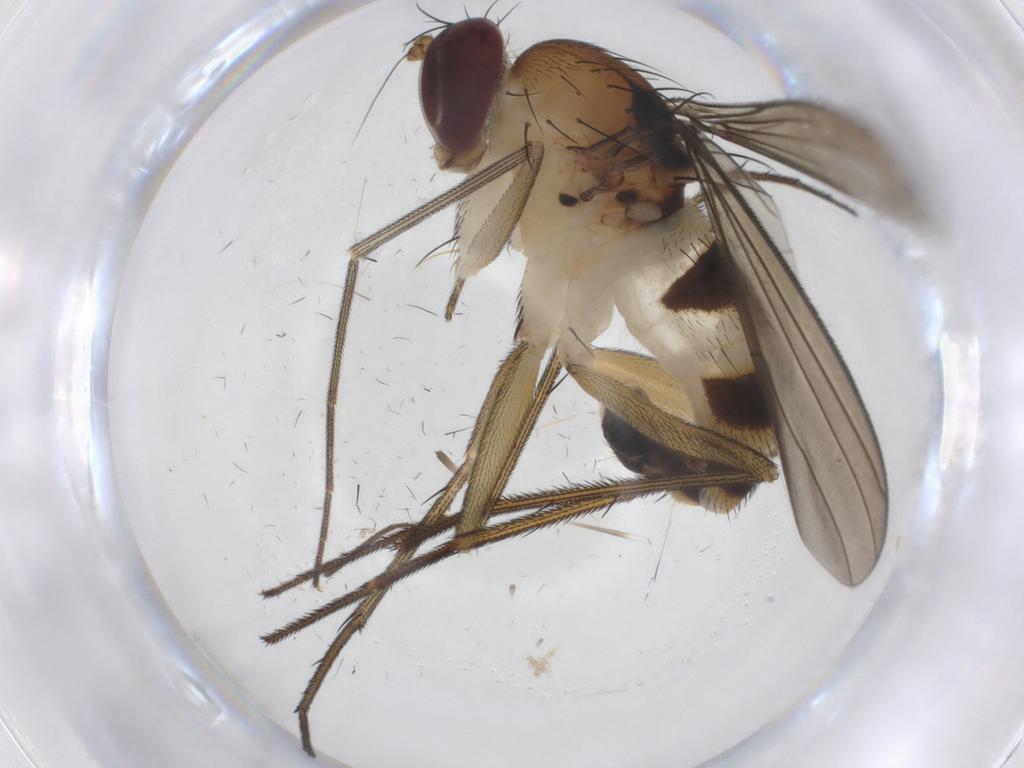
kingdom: Animalia
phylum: Arthropoda
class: Insecta
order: Diptera
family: Dolichopodidae
